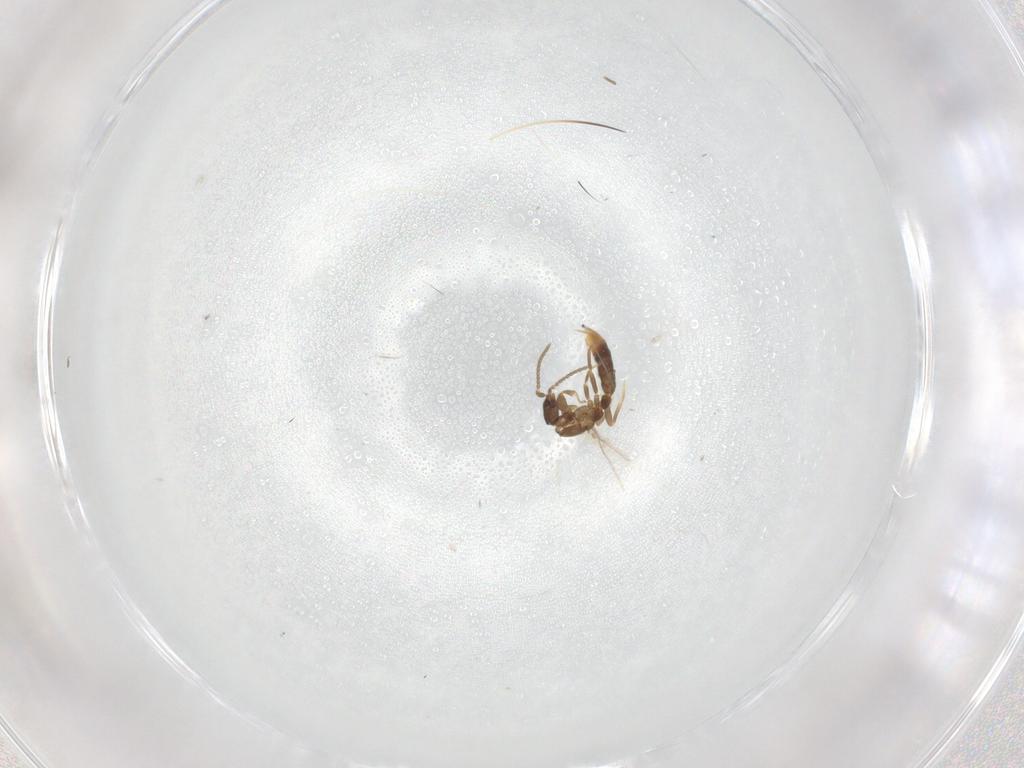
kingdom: Animalia
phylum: Arthropoda
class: Insecta
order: Hymenoptera
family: Formicidae
